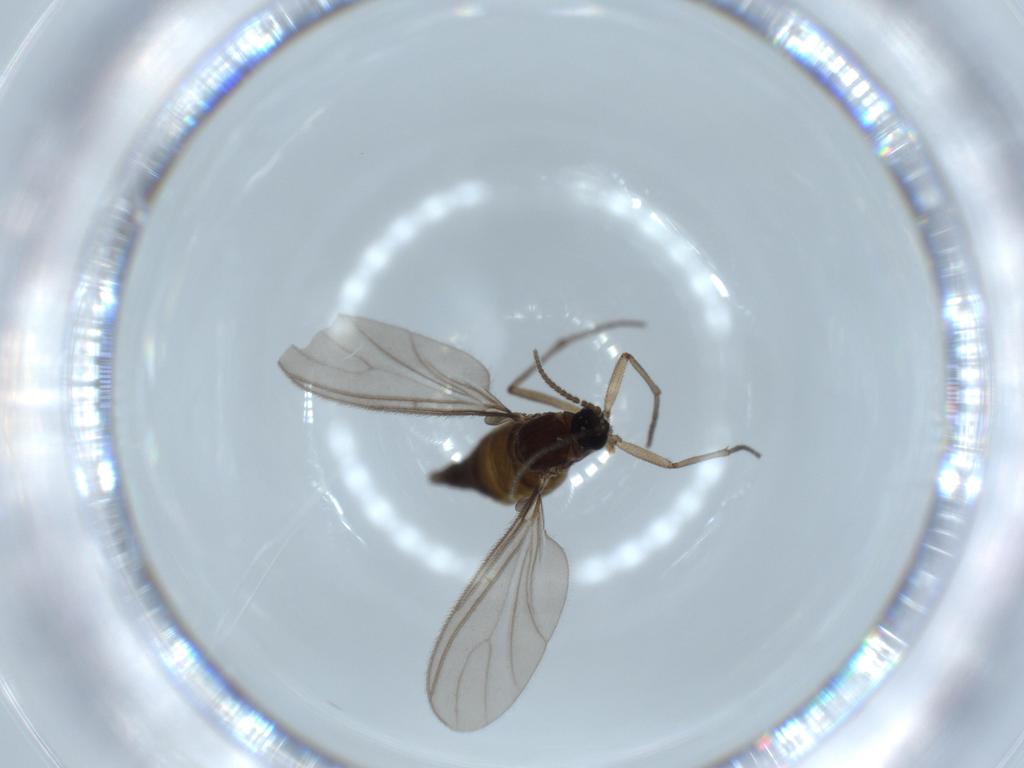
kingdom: Animalia
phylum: Arthropoda
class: Insecta
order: Diptera
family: Sciaridae
